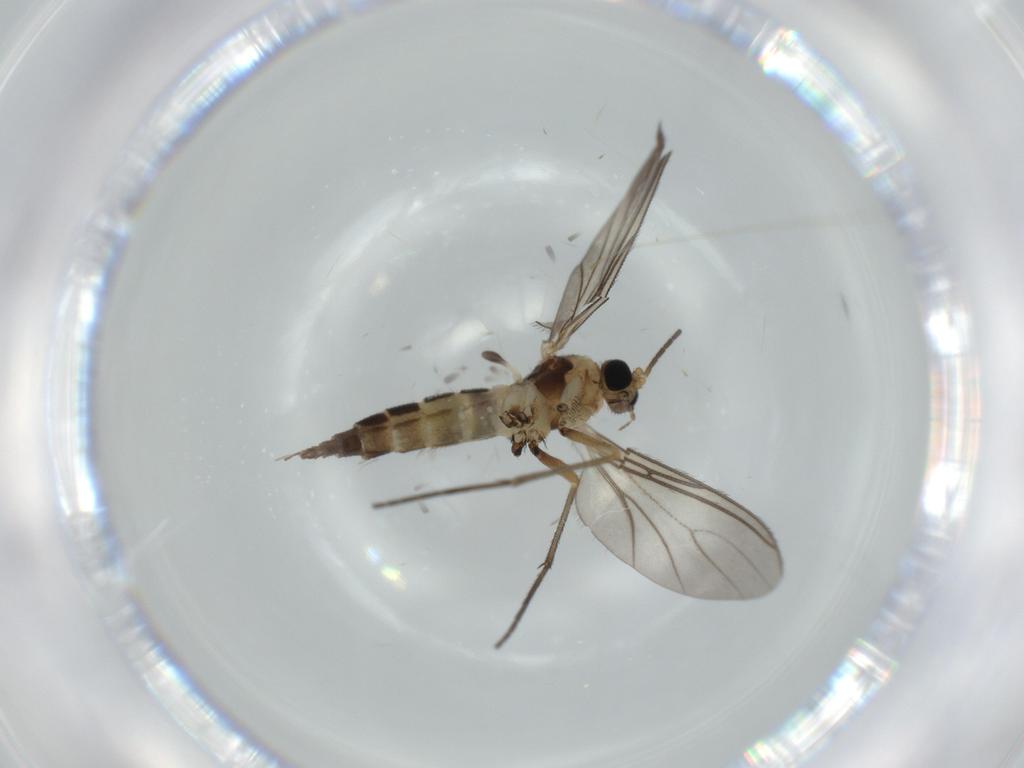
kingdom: Animalia
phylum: Arthropoda
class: Insecta
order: Diptera
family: Sciaridae
